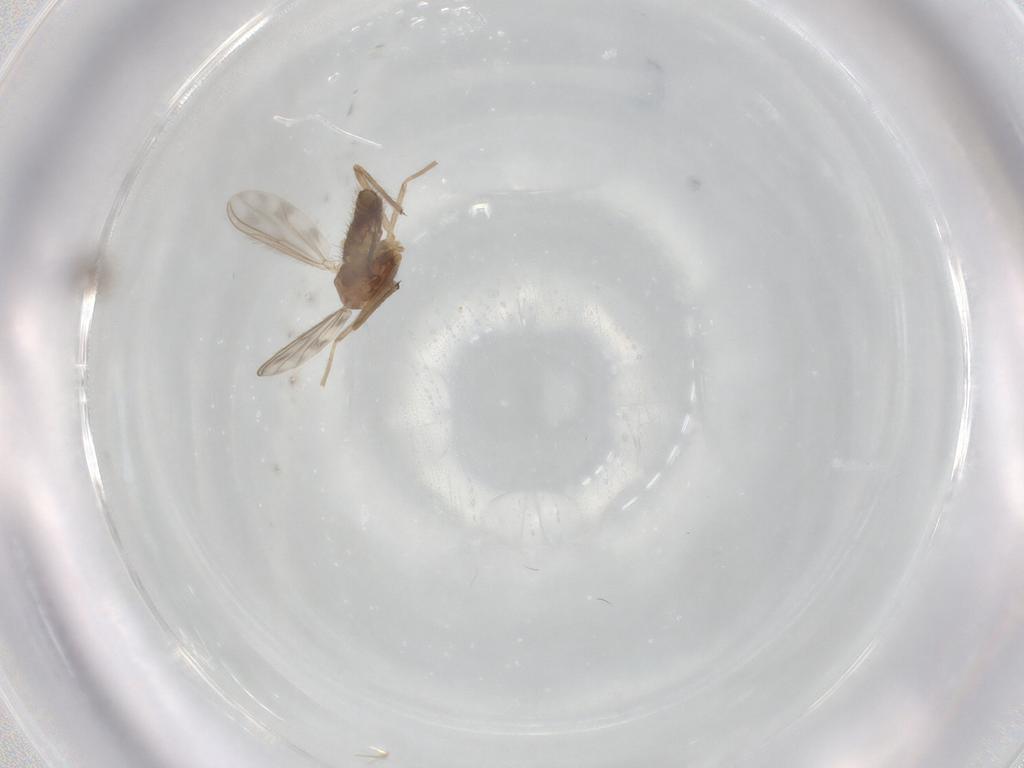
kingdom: Animalia
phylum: Arthropoda
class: Insecta
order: Diptera
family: Chironomidae
